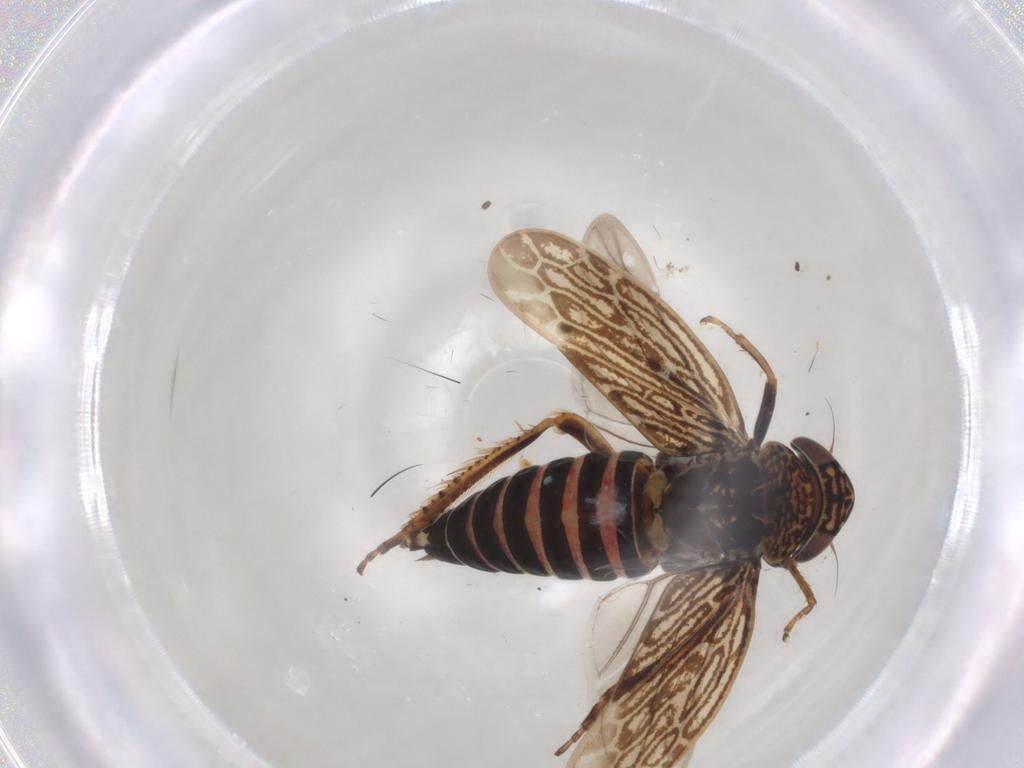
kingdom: Animalia
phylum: Arthropoda
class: Insecta
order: Hemiptera
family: Cicadellidae
